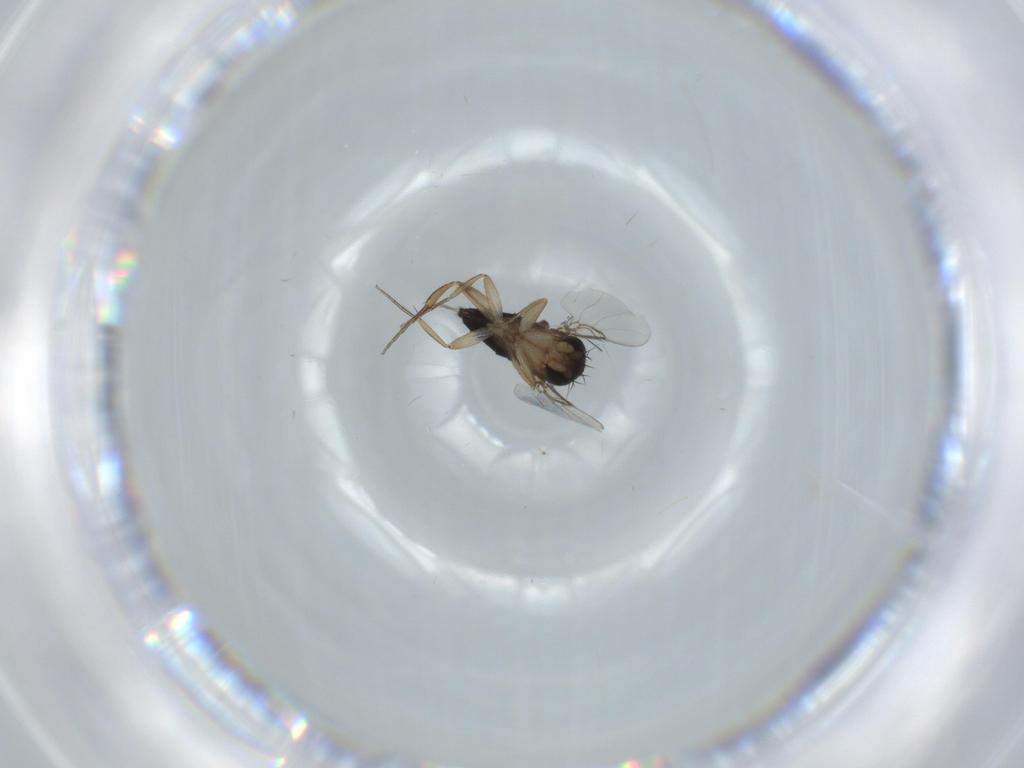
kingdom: Animalia
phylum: Arthropoda
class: Insecta
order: Diptera
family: Phoridae
